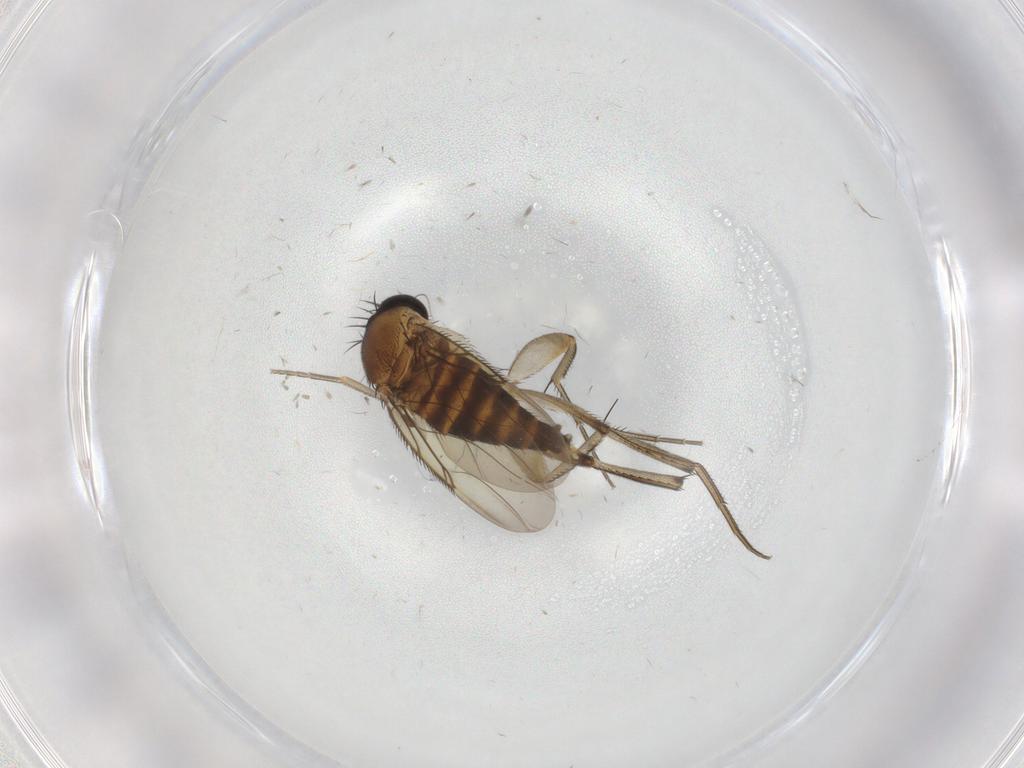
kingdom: Animalia
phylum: Arthropoda
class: Insecta
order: Diptera
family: Phoridae
